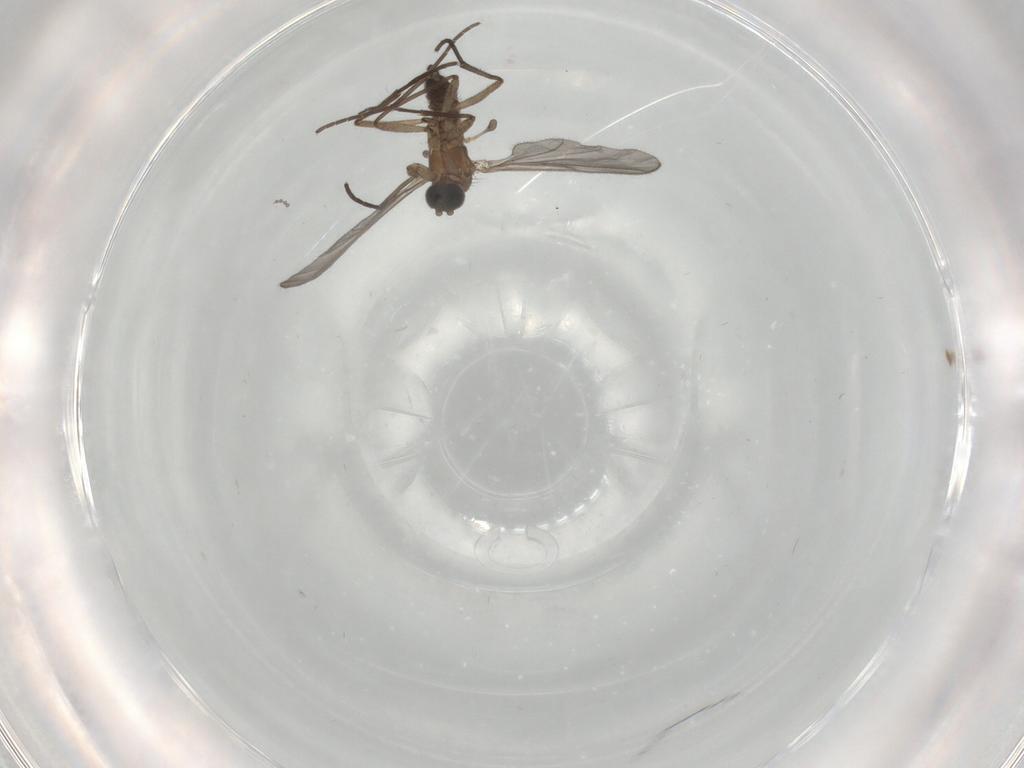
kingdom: Animalia
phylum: Arthropoda
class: Insecta
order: Diptera
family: Sciaridae
